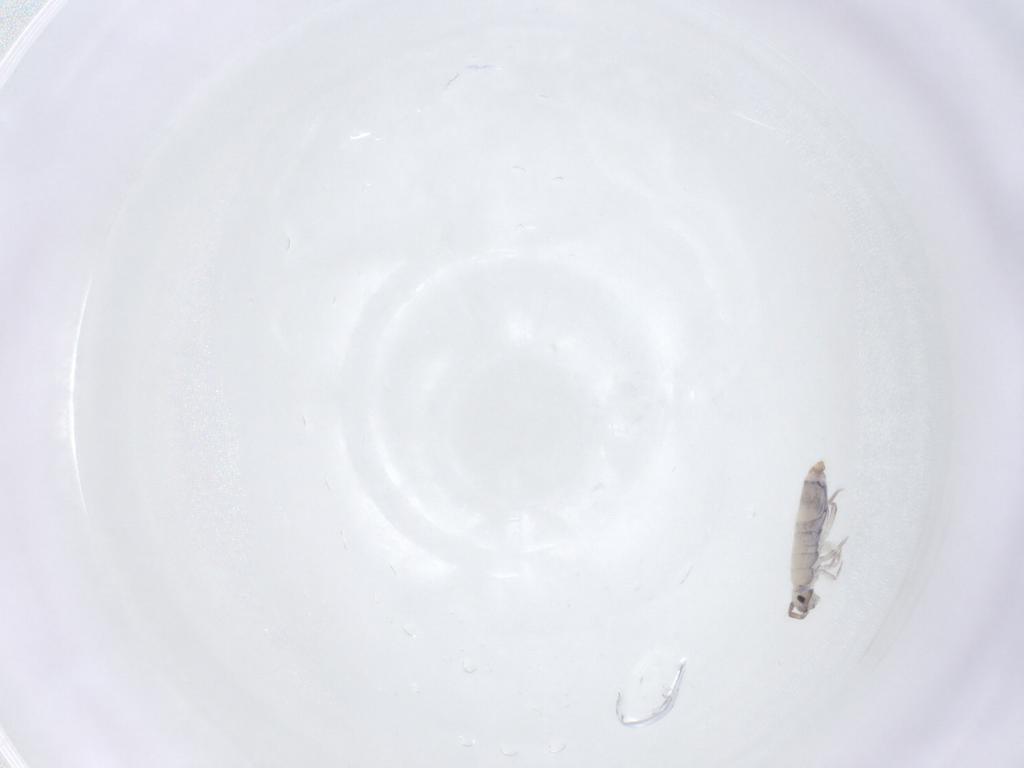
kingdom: Animalia
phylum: Arthropoda
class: Collembola
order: Entomobryomorpha
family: Entomobryidae
